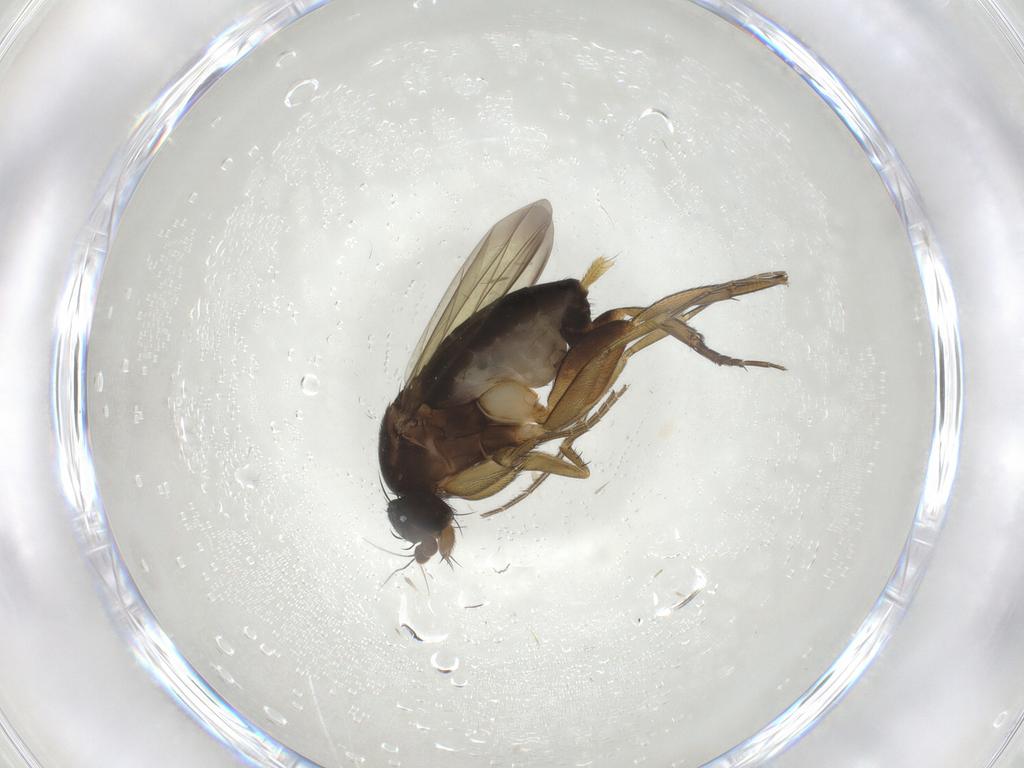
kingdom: Animalia
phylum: Arthropoda
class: Insecta
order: Diptera
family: Phoridae
